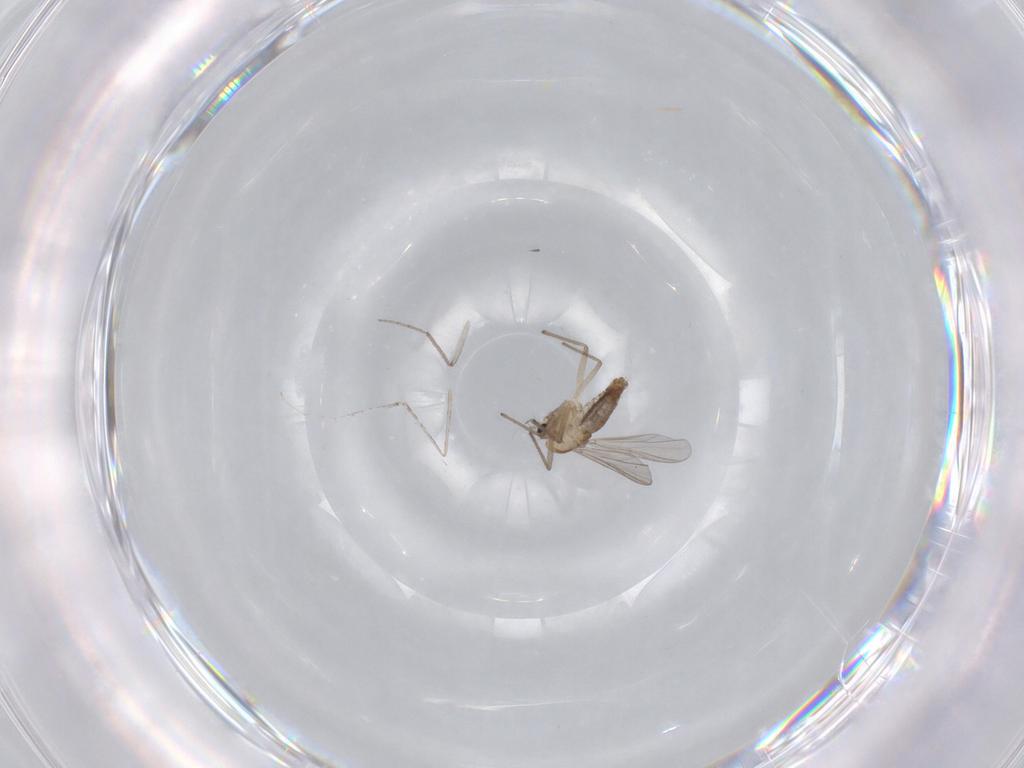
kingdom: Animalia
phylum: Arthropoda
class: Insecta
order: Diptera
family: Chironomidae
